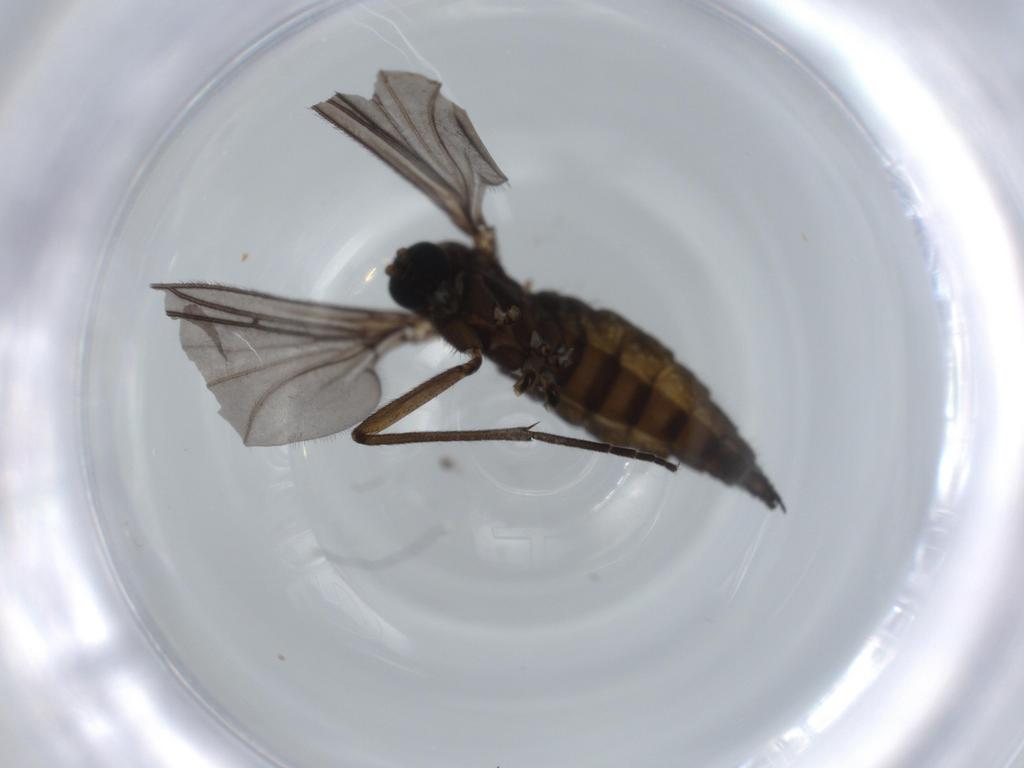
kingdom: Animalia
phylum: Arthropoda
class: Insecta
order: Diptera
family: Sciaridae
